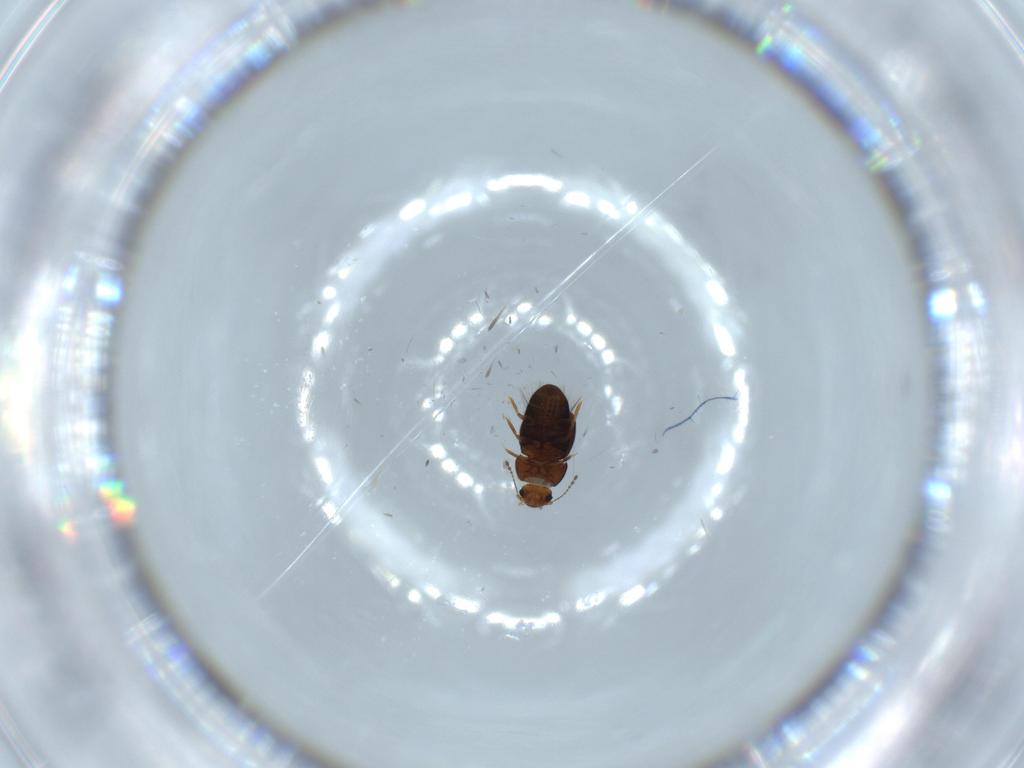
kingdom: Animalia
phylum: Arthropoda
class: Insecta
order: Coleoptera
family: Ptiliidae
